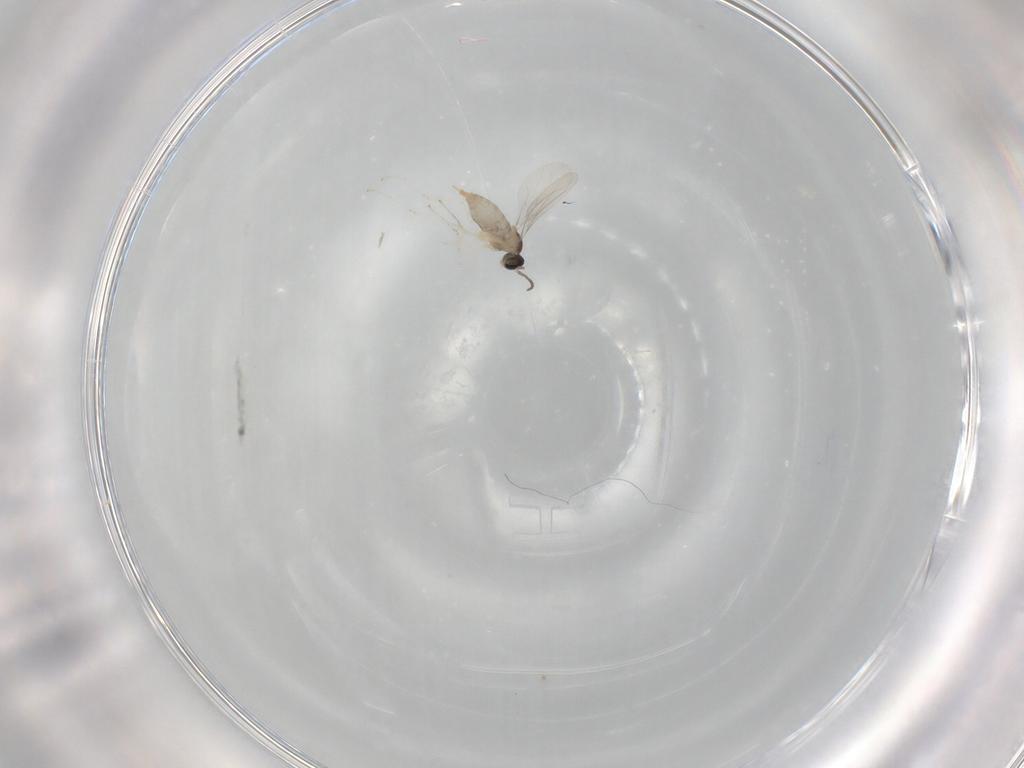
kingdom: Animalia
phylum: Arthropoda
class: Insecta
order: Diptera
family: Cecidomyiidae
